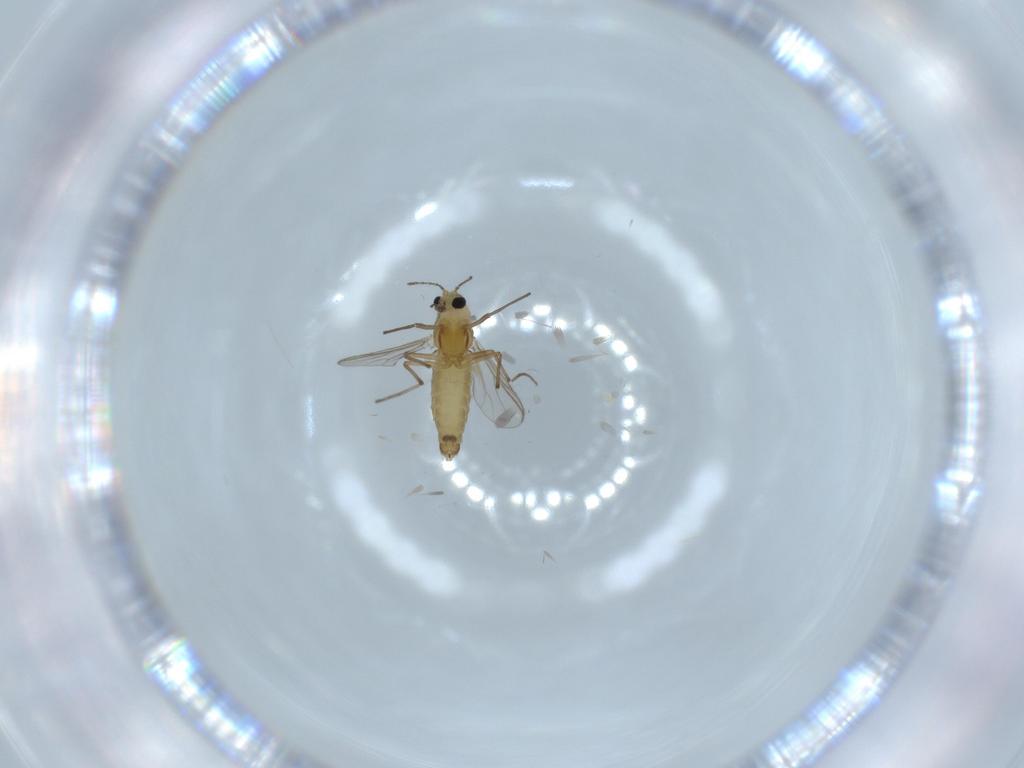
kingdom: Animalia
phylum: Arthropoda
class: Insecta
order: Diptera
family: Chironomidae
